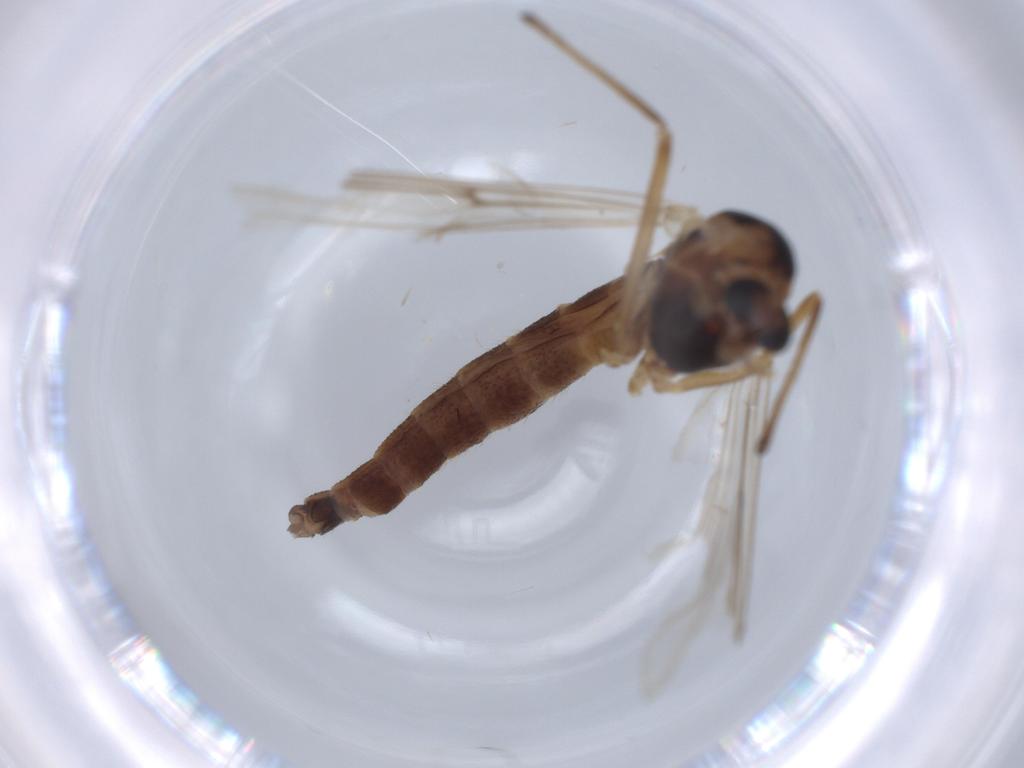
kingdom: Animalia
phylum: Arthropoda
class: Insecta
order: Diptera
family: Chironomidae
